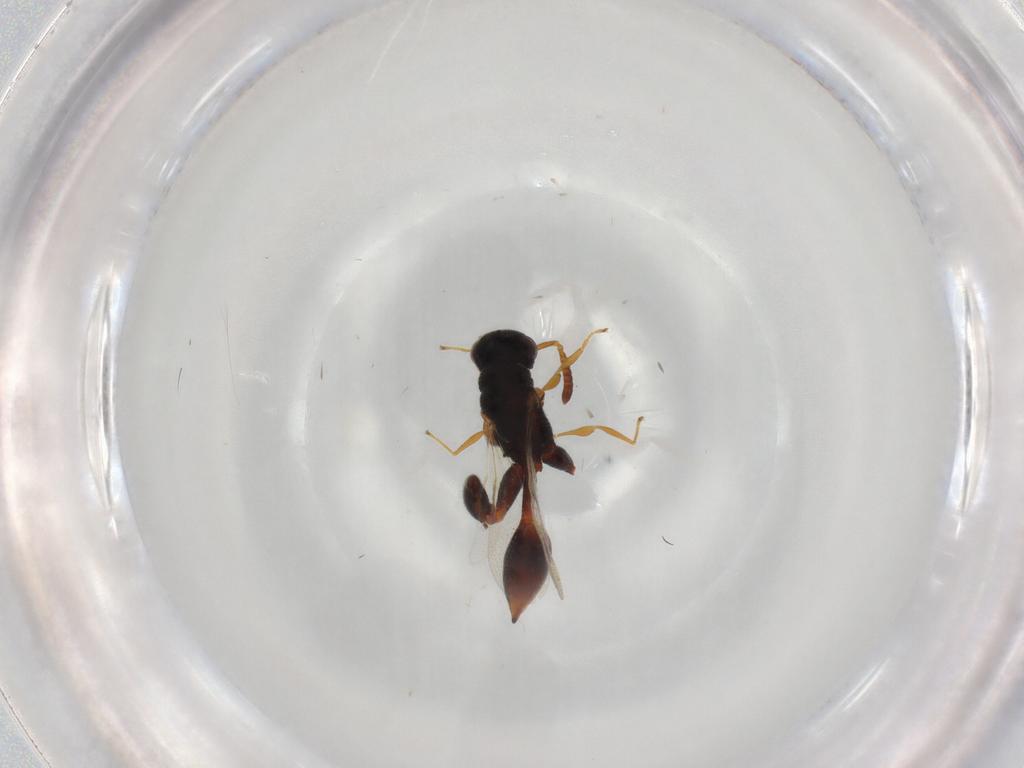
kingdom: Animalia
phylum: Arthropoda
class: Insecta
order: Hymenoptera
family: Chalcididae
